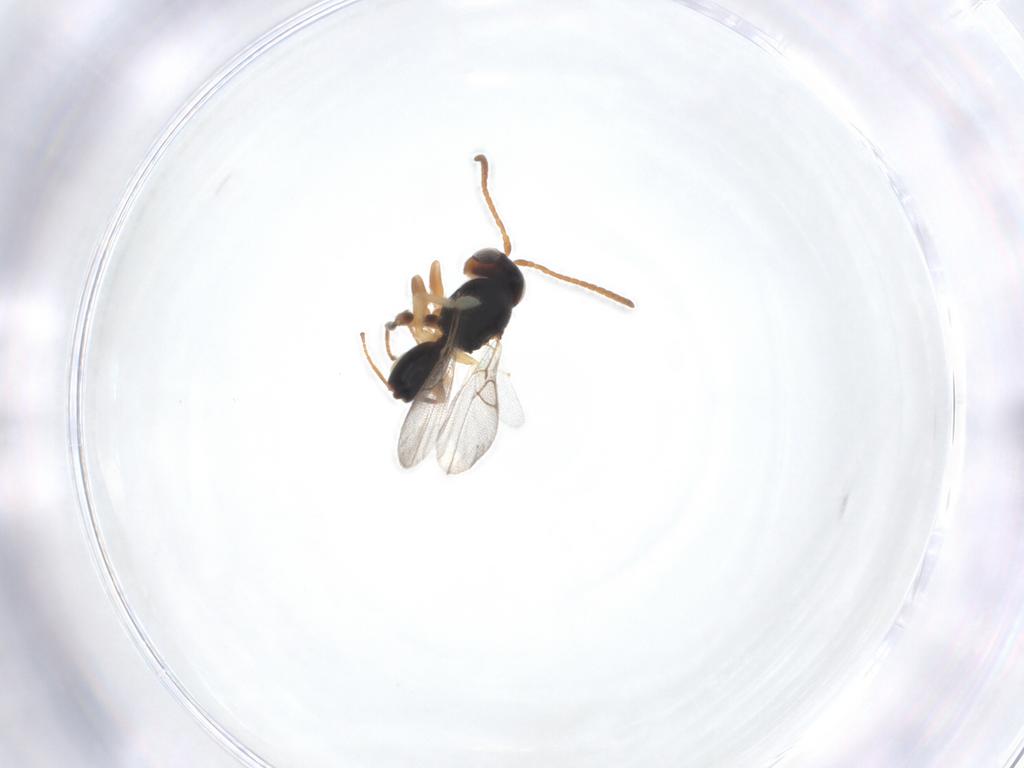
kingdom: Animalia
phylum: Arthropoda
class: Insecta
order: Hymenoptera
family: Cynipidae
